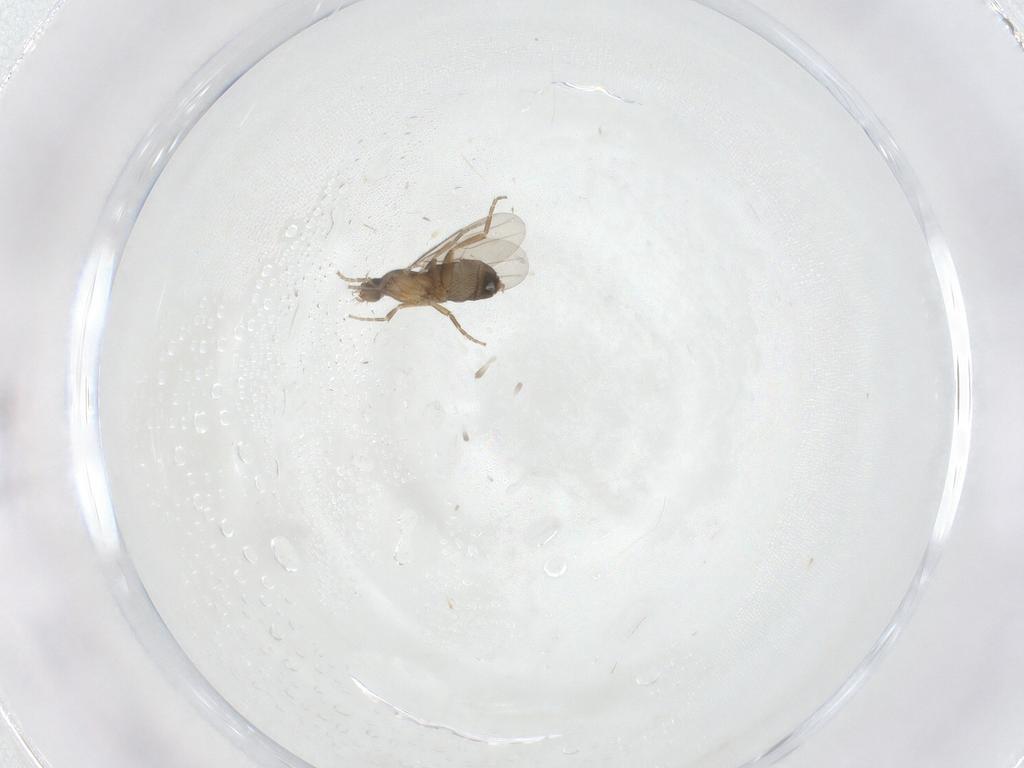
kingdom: Animalia
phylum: Arthropoda
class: Insecta
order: Diptera
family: Phoridae
